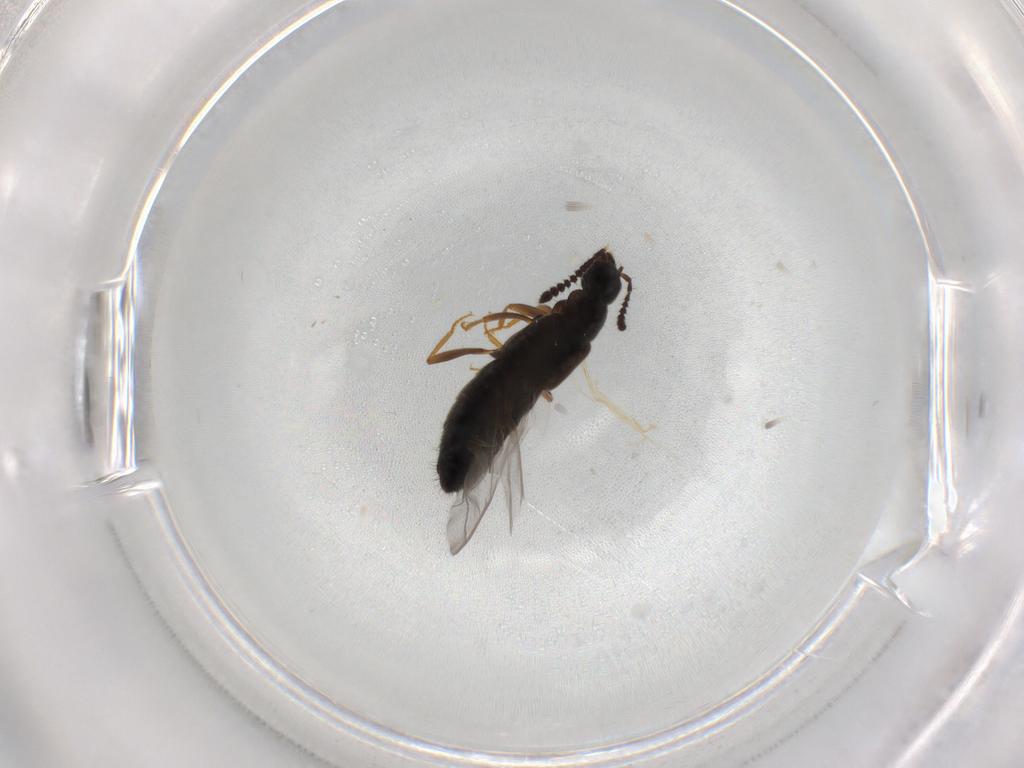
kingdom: Animalia
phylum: Arthropoda
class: Insecta
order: Coleoptera
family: Staphylinidae
